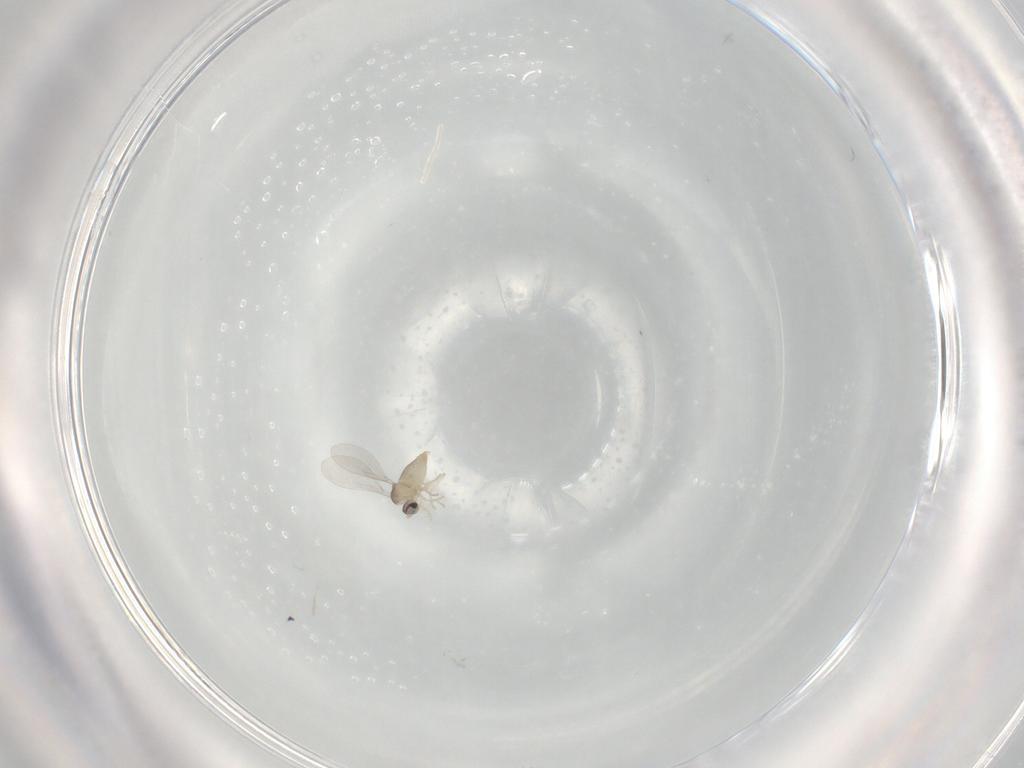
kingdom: Animalia
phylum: Arthropoda
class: Insecta
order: Diptera
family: Cecidomyiidae
